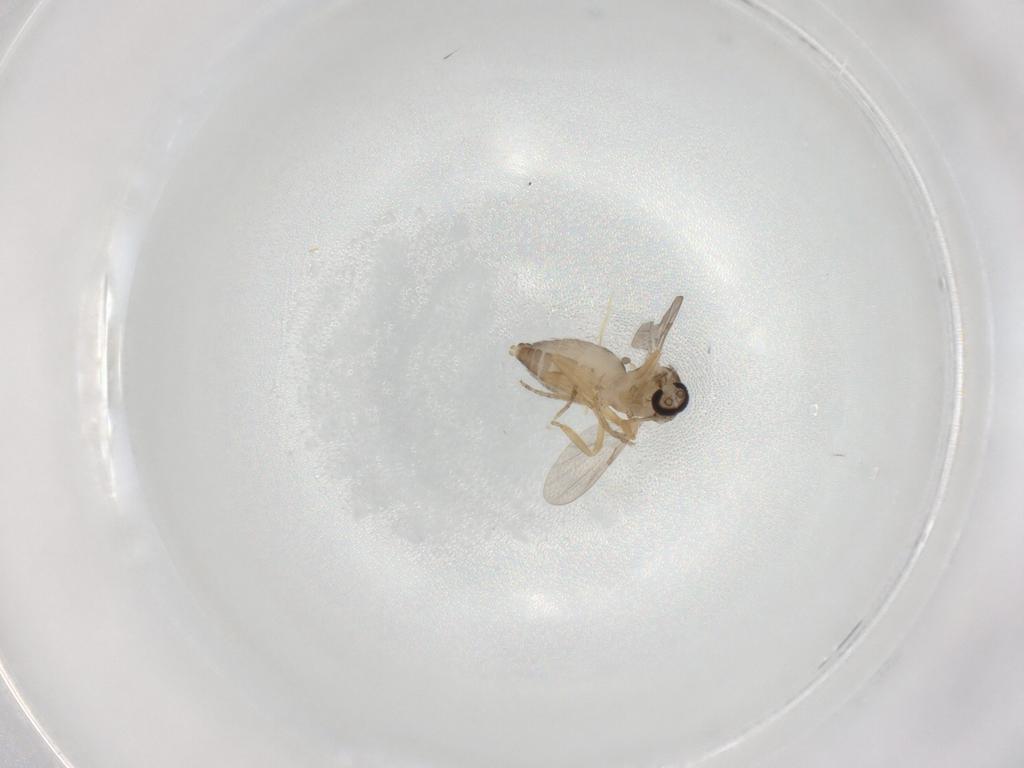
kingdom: Animalia
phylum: Arthropoda
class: Insecta
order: Diptera
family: Ceratopogonidae
